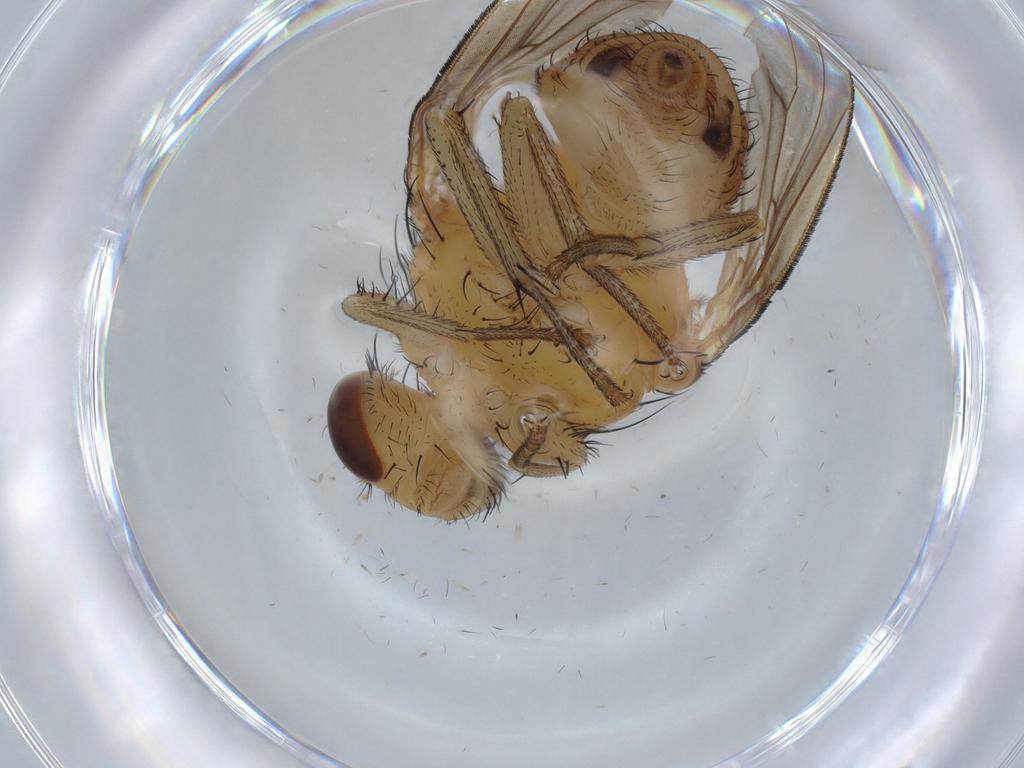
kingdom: Animalia
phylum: Arthropoda
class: Insecta
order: Diptera
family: Lauxaniidae
